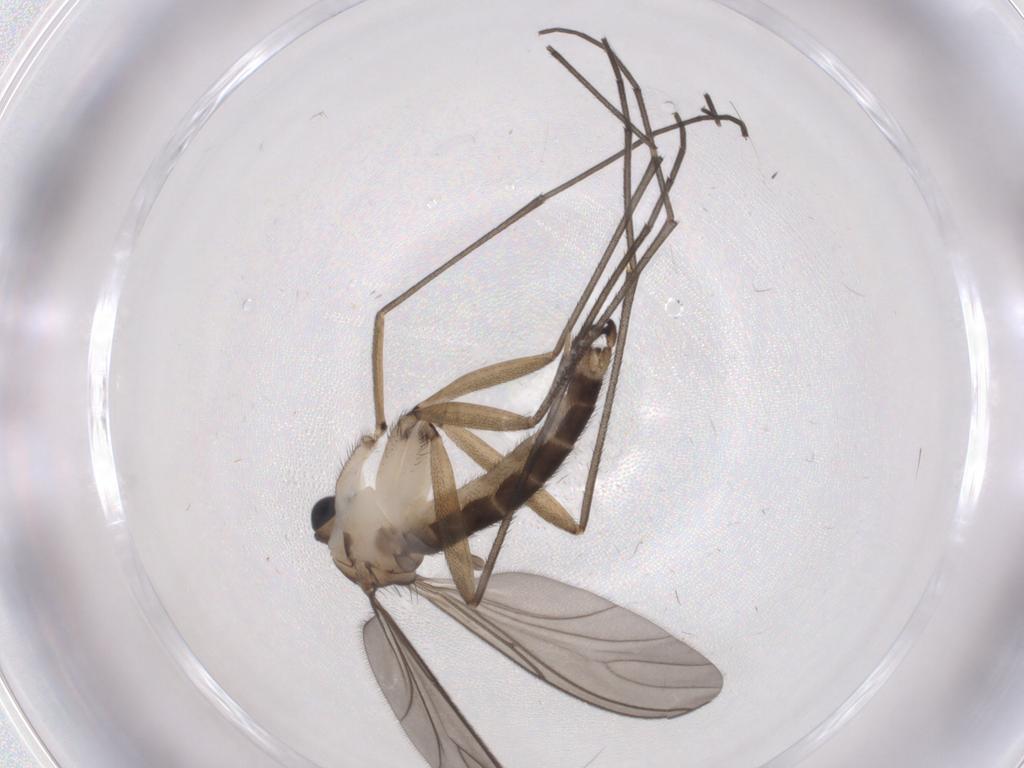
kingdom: Animalia
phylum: Arthropoda
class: Insecta
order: Diptera
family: Sciaridae
